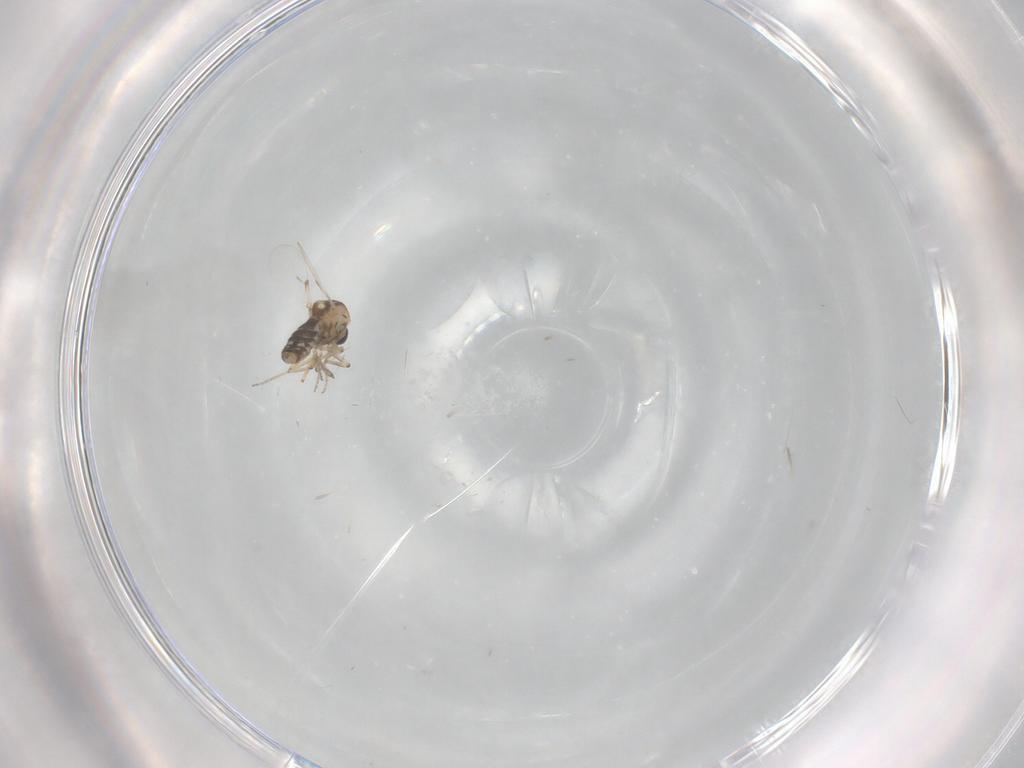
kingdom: Animalia
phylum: Arthropoda
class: Insecta
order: Diptera
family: Ceratopogonidae
